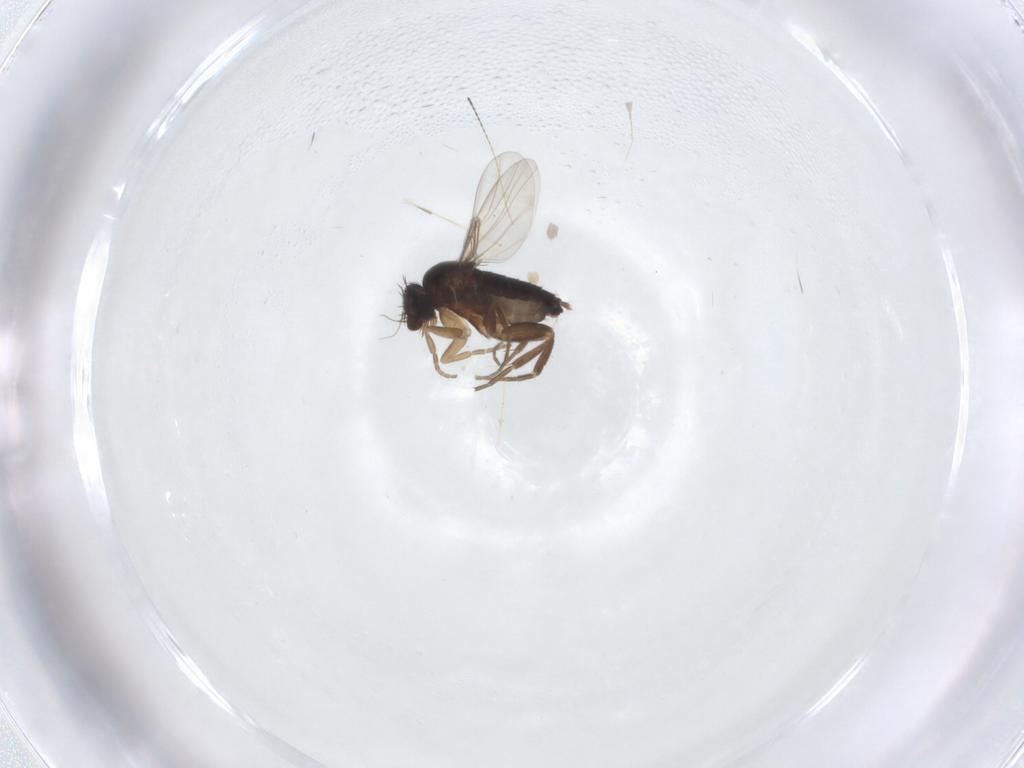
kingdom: Animalia
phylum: Arthropoda
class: Insecta
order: Diptera
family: Phoridae
